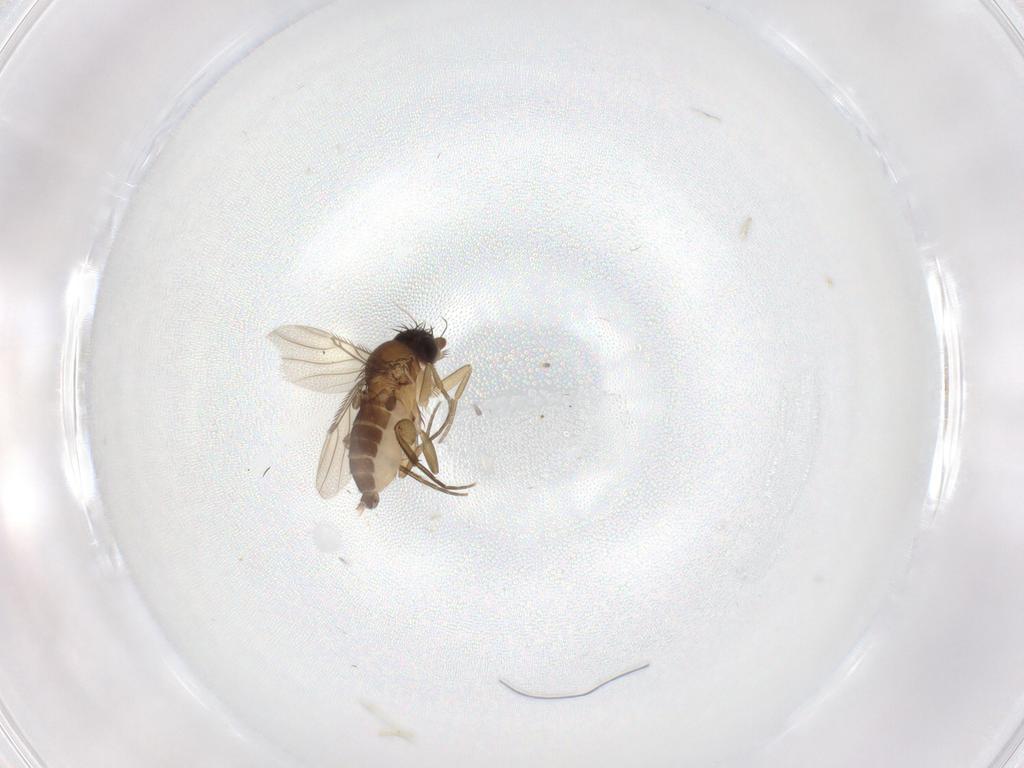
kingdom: Animalia
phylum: Arthropoda
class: Insecta
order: Diptera
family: Phoridae
